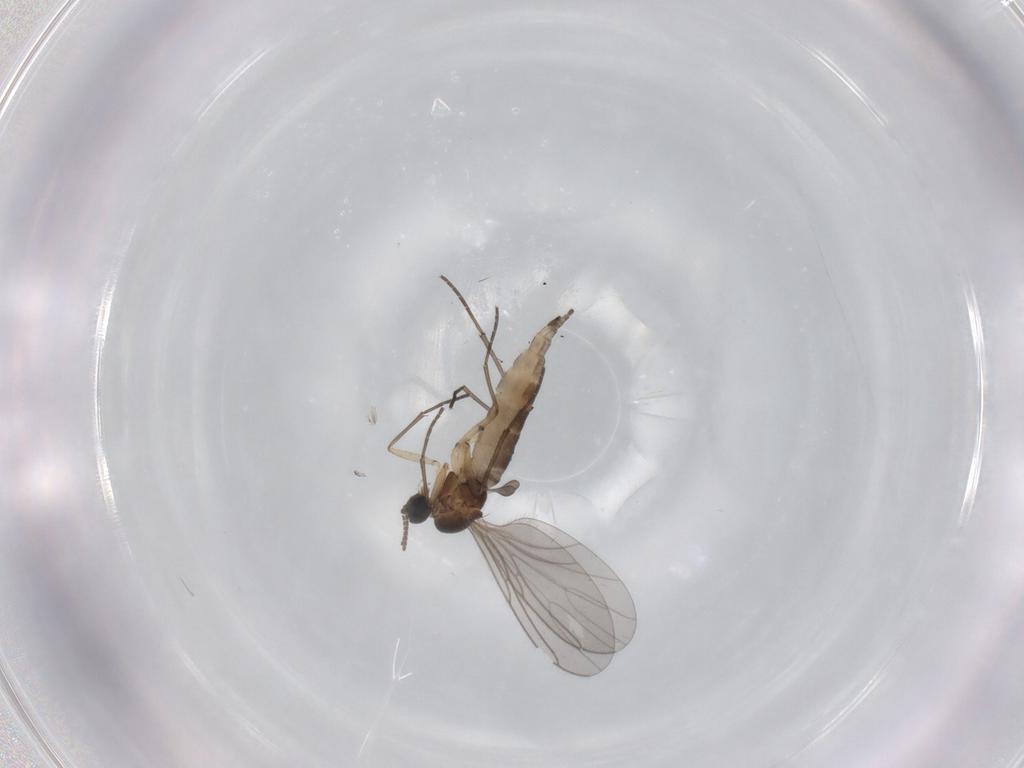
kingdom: Animalia
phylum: Arthropoda
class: Insecta
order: Diptera
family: Sciaridae
